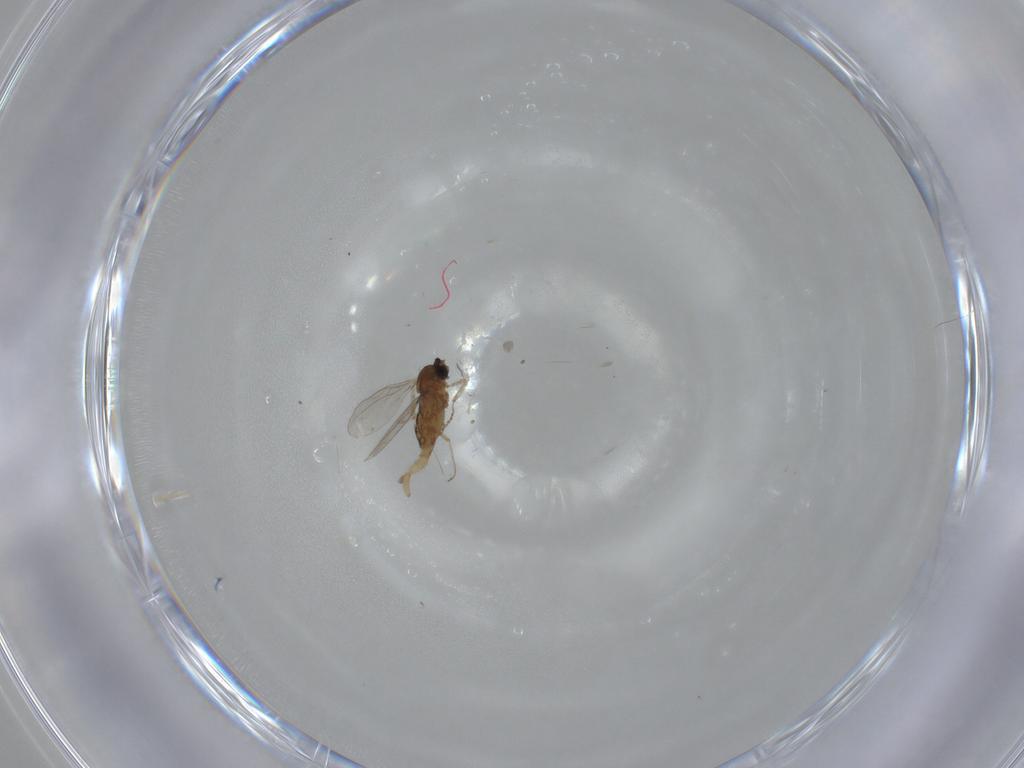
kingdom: Animalia
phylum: Arthropoda
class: Insecta
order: Diptera
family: Cecidomyiidae
